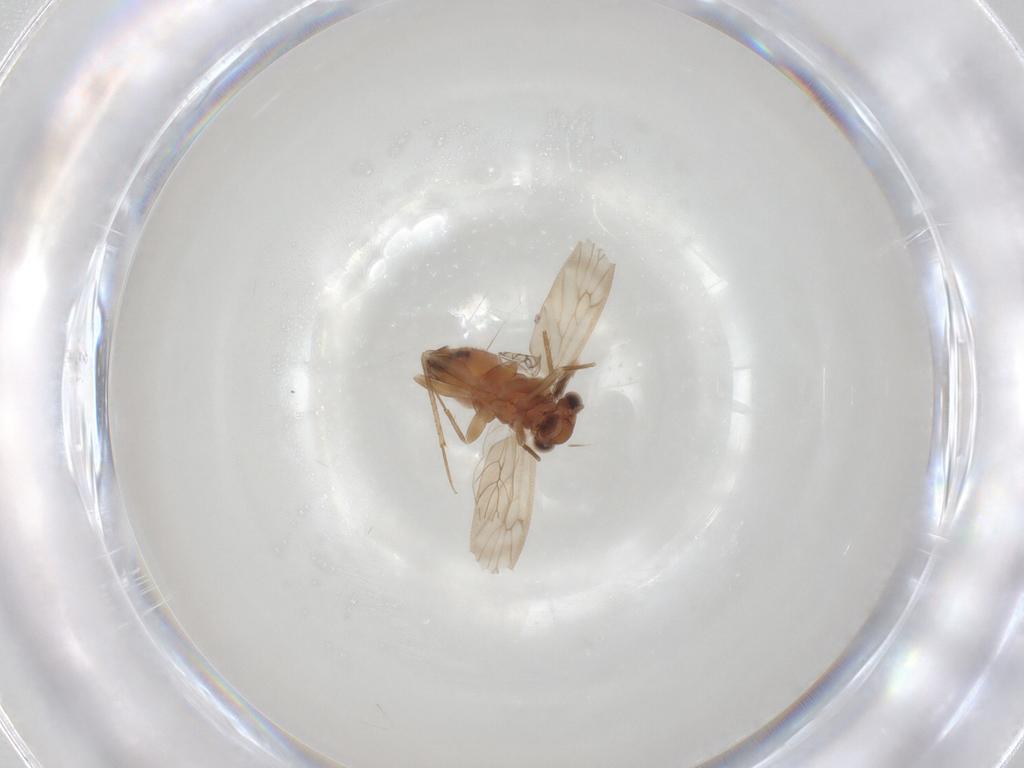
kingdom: Animalia
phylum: Arthropoda
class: Insecta
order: Psocodea
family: Lepidopsocidae
